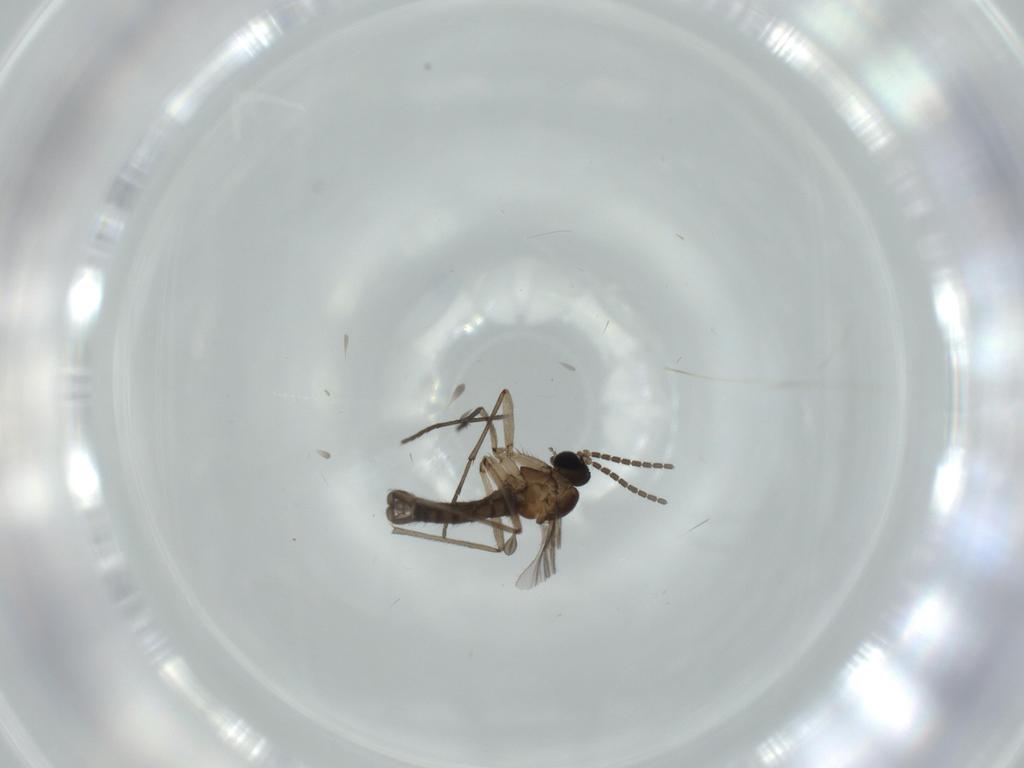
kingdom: Animalia
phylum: Arthropoda
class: Insecta
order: Diptera
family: Sciaridae
